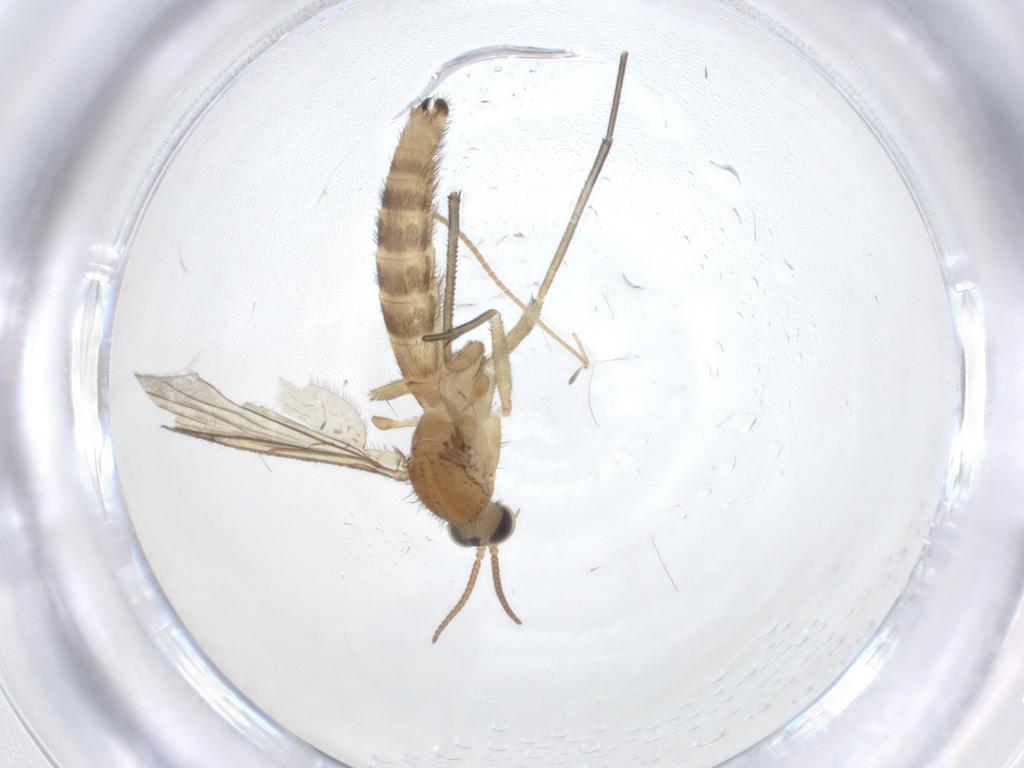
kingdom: Animalia
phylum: Arthropoda
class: Insecta
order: Diptera
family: Keroplatidae
